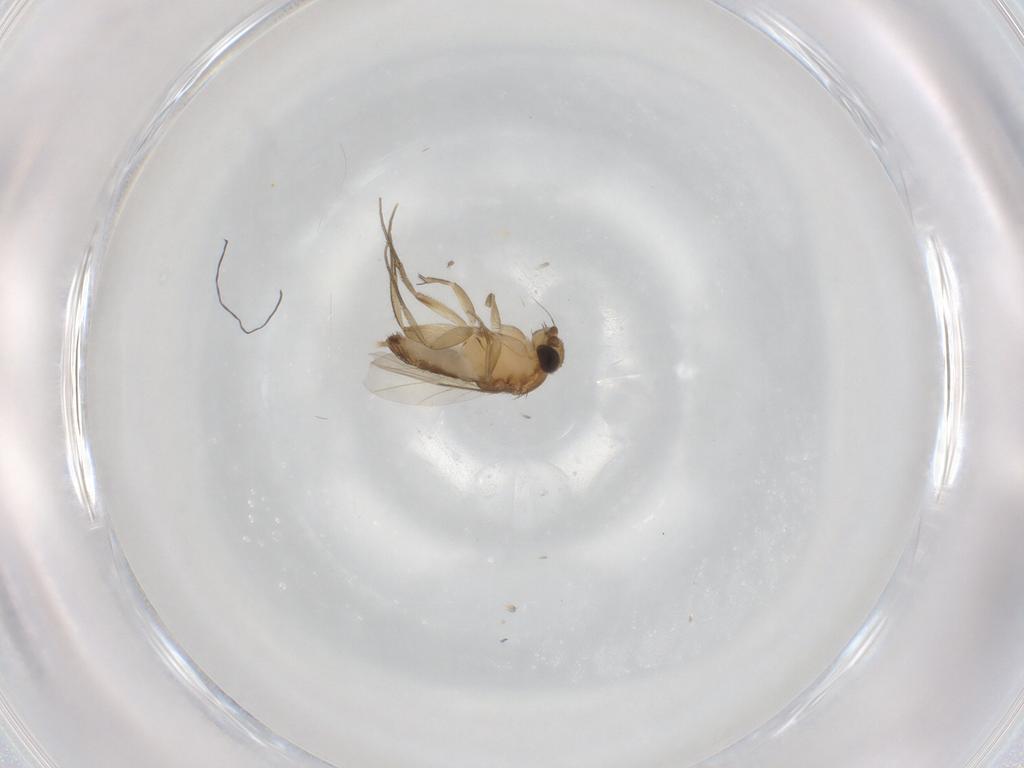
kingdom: Animalia
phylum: Arthropoda
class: Insecta
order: Diptera
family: Phoridae
